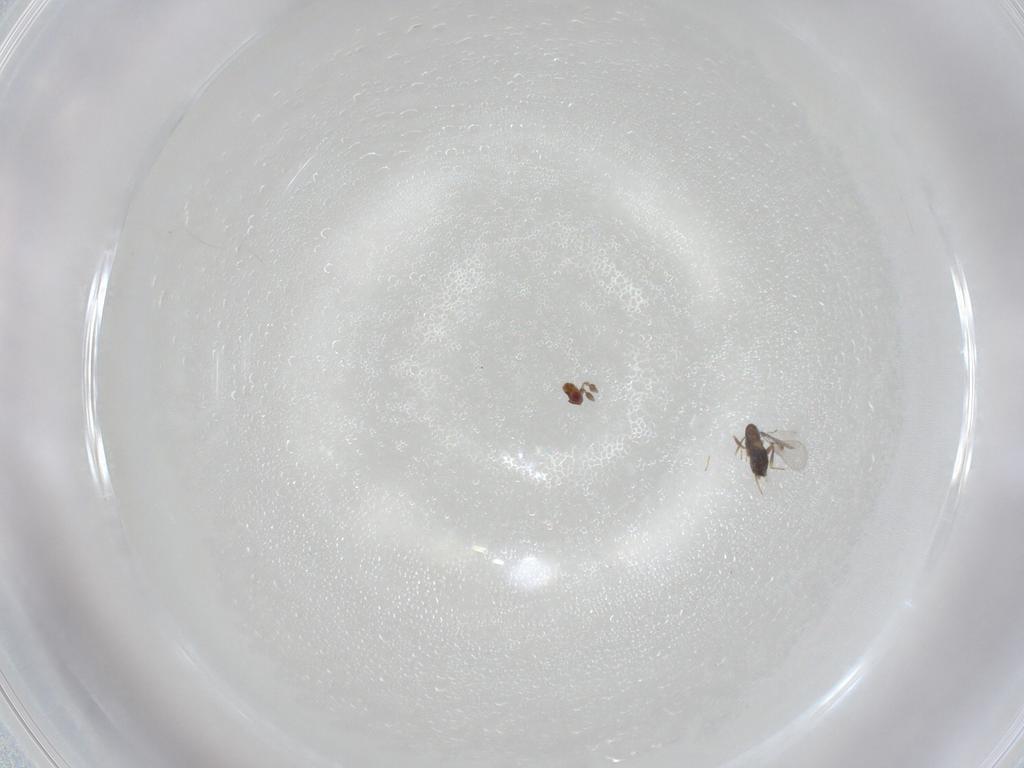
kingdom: Animalia
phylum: Arthropoda
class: Insecta
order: Hymenoptera
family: Trichogrammatidae
